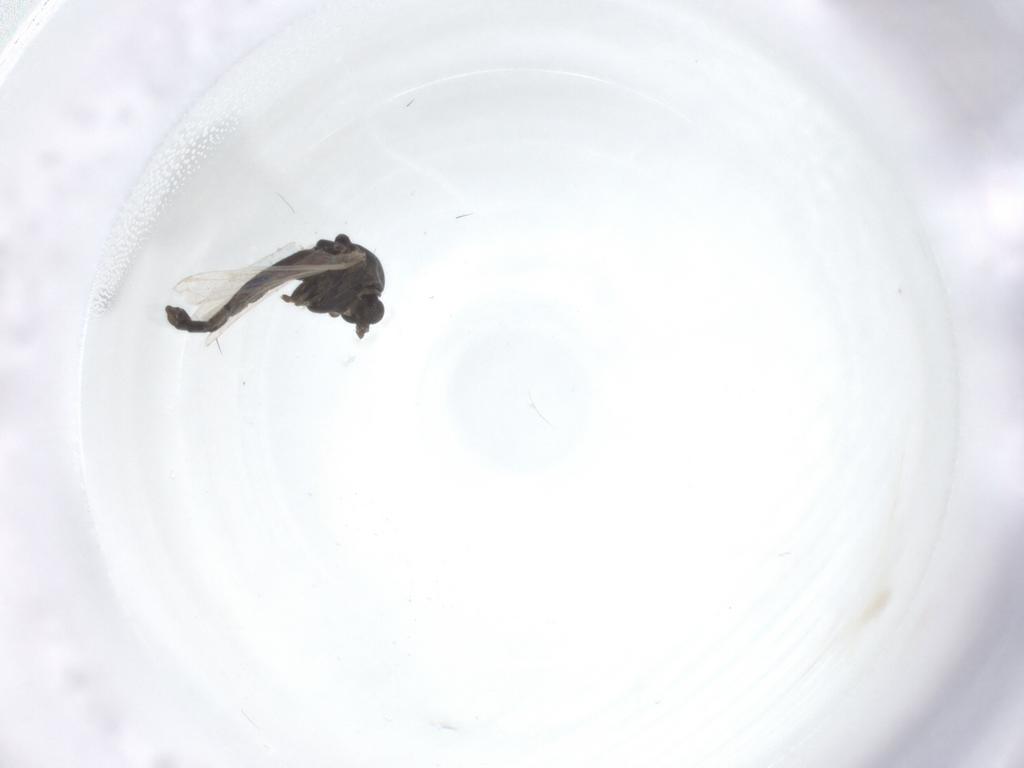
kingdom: Animalia
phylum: Arthropoda
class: Insecta
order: Diptera
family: Chironomidae
